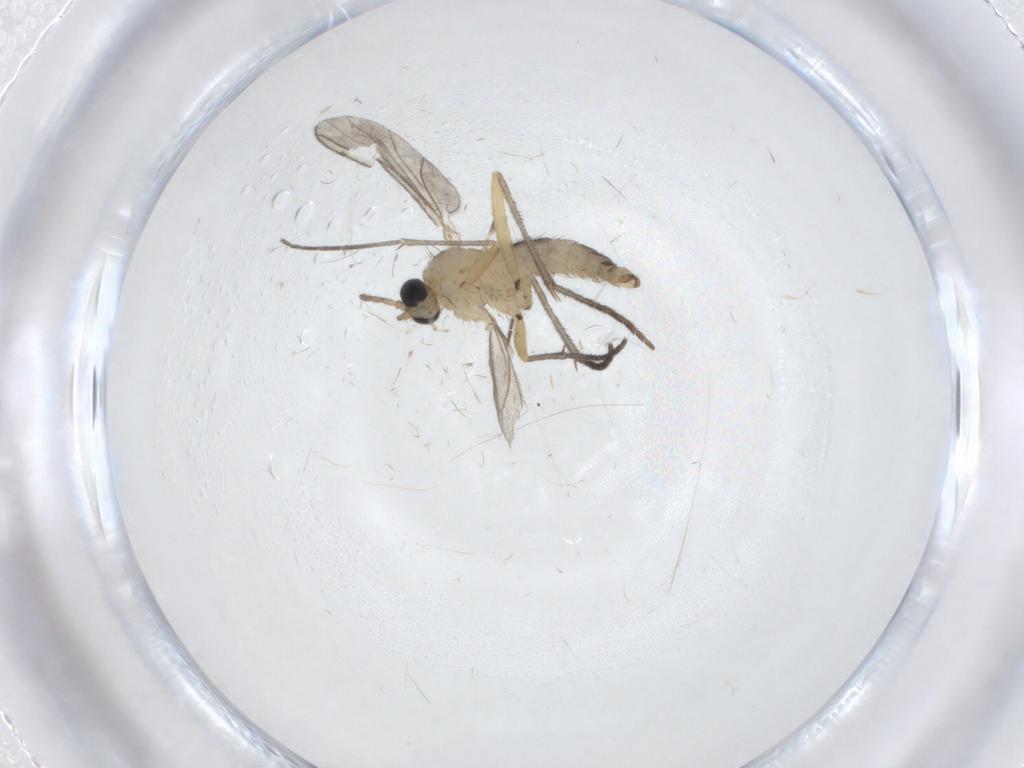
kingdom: Animalia
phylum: Arthropoda
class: Insecta
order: Diptera
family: Sciaridae
